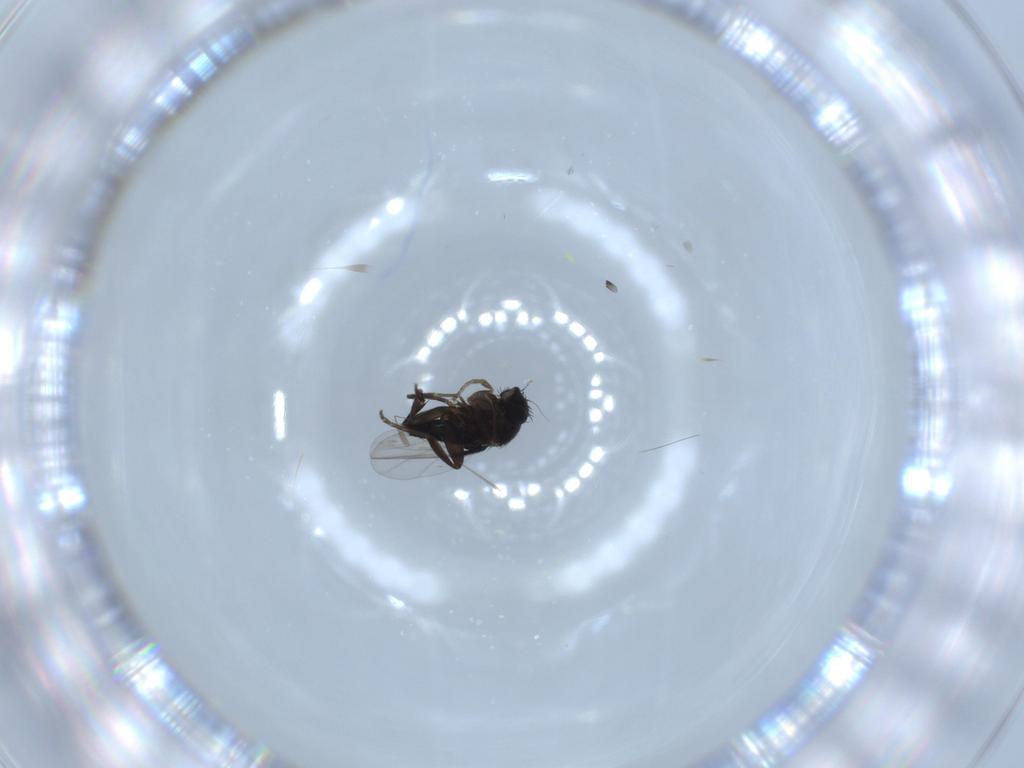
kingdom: Animalia
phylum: Arthropoda
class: Insecta
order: Diptera
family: Phoridae
